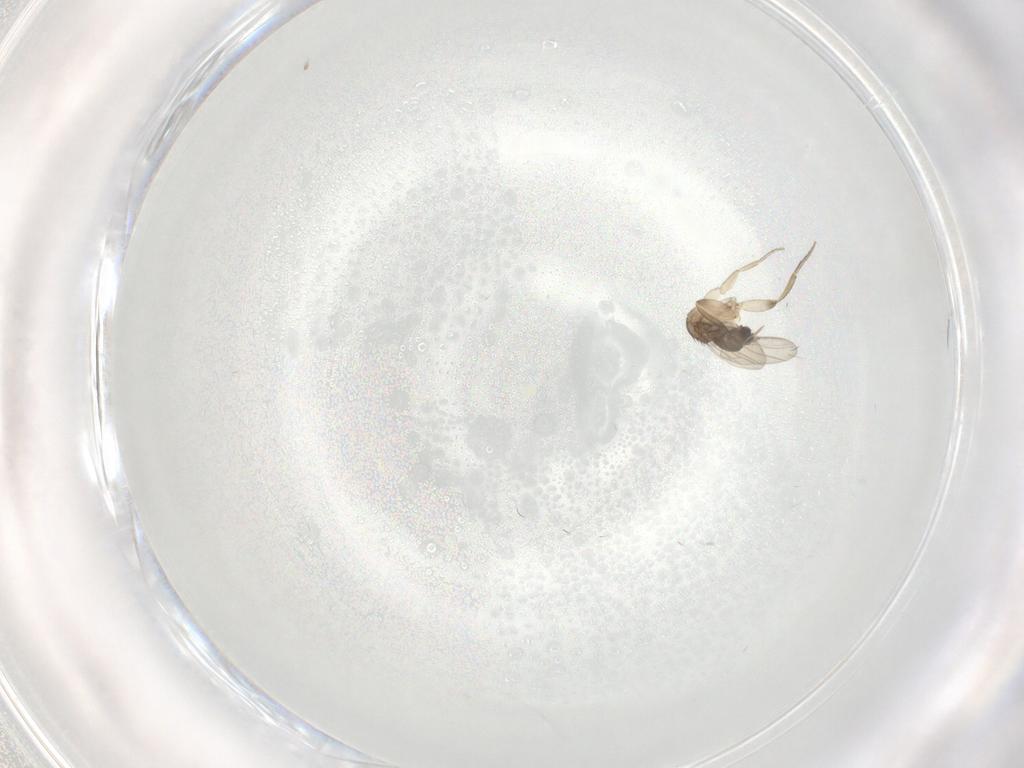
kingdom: Animalia
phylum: Arthropoda
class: Insecta
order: Diptera
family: Phoridae
